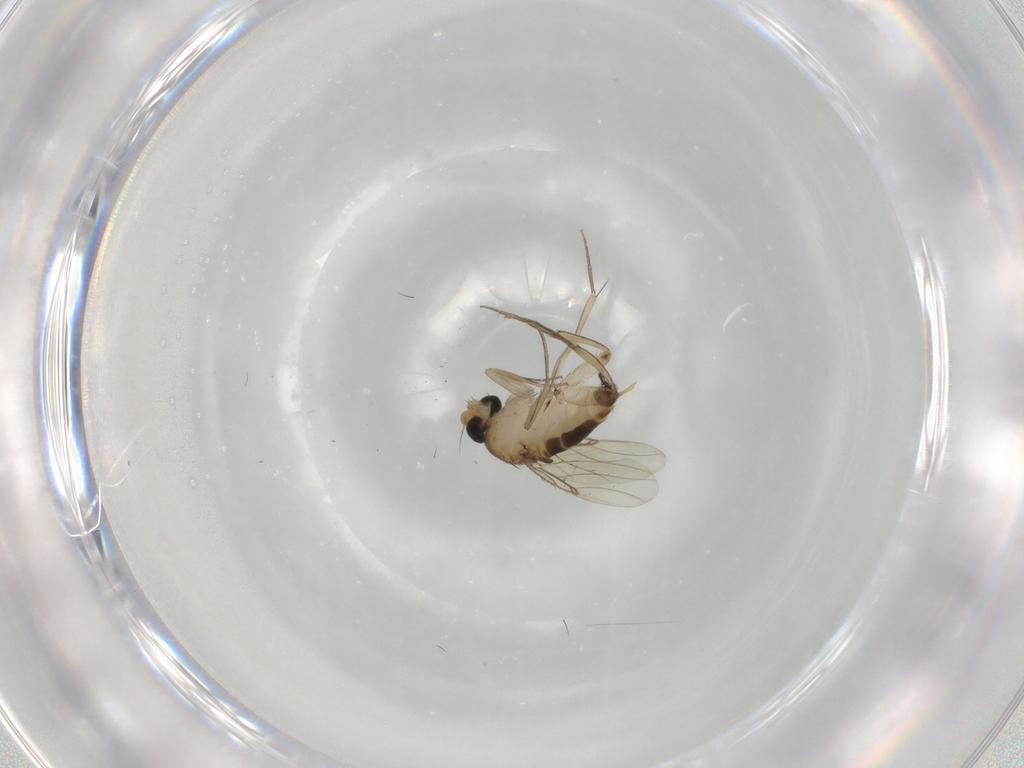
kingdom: Animalia
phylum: Arthropoda
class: Insecta
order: Diptera
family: Phoridae
